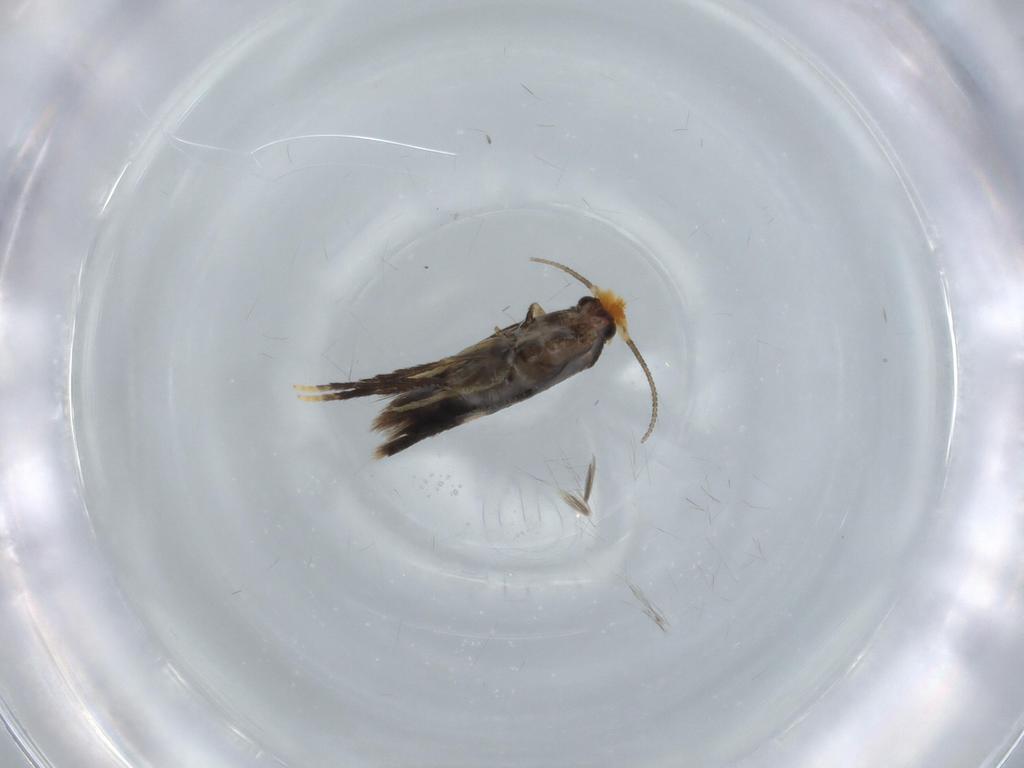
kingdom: Animalia
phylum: Arthropoda
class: Insecta
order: Lepidoptera
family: Nepticulidae
